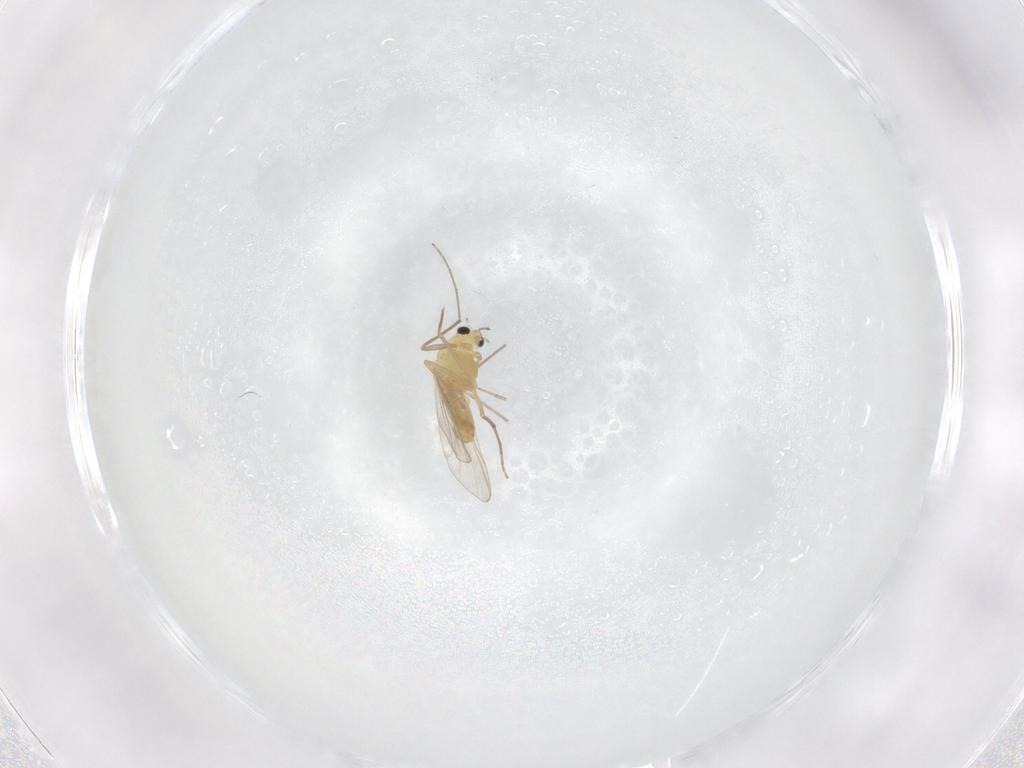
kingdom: Animalia
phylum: Arthropoda
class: Insecta
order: Diptera
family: Chironomidae
